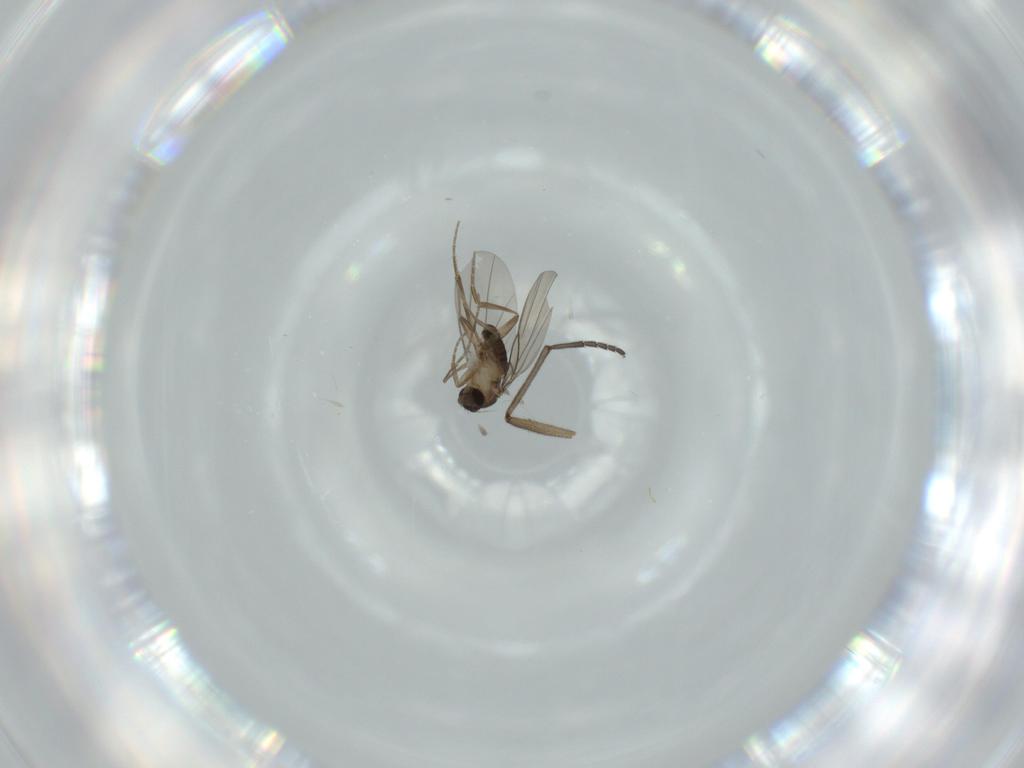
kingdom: Animalia
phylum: Arthropoda
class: Insecta
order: Diptera
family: Phoridae
